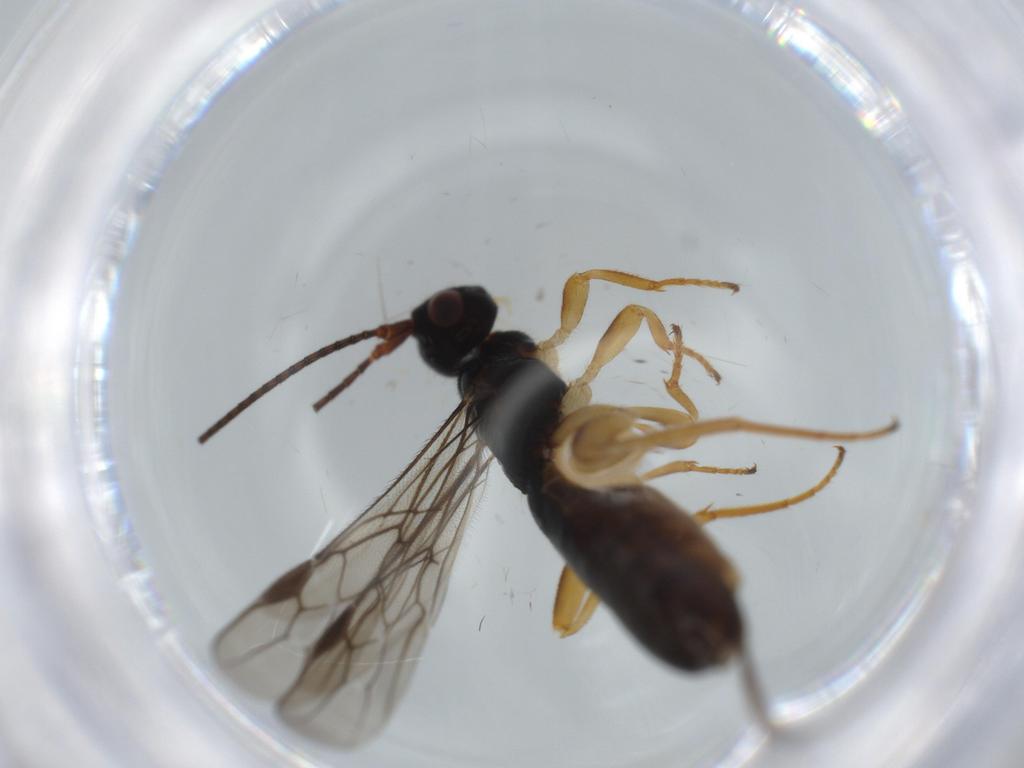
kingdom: Animalia
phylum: Arthropoda
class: Insecta
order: Hymenoptera
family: Braconidae
